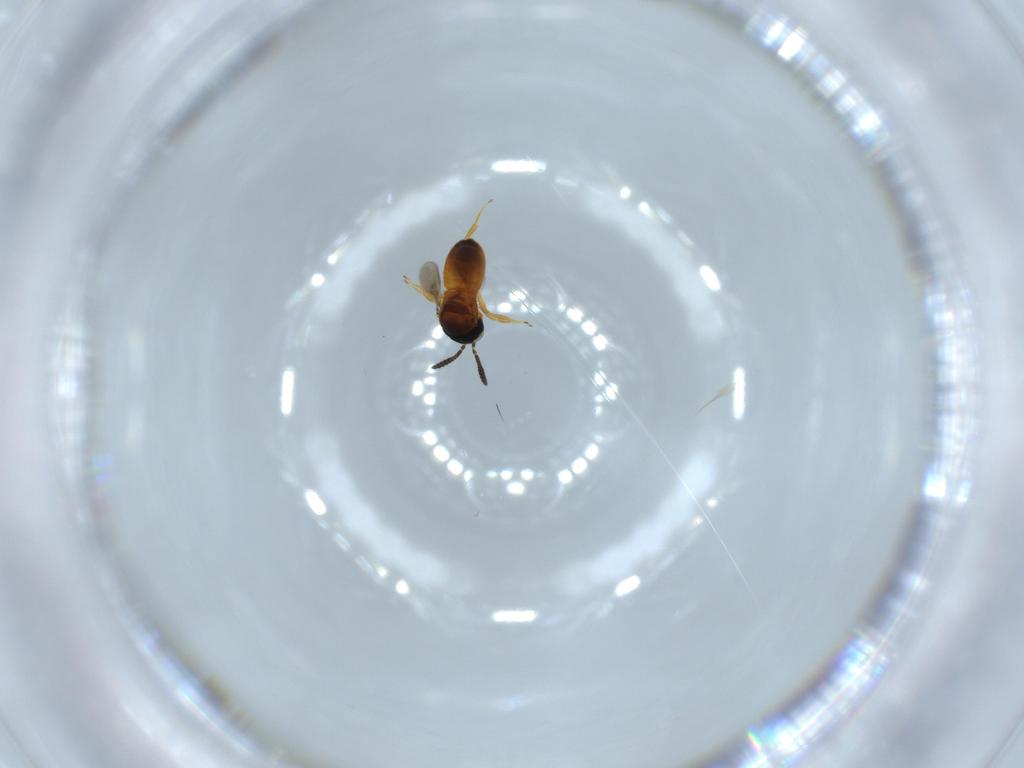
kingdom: Animalia
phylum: Arthropoda
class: Insecta
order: Hymenoptera
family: Scelionidae
